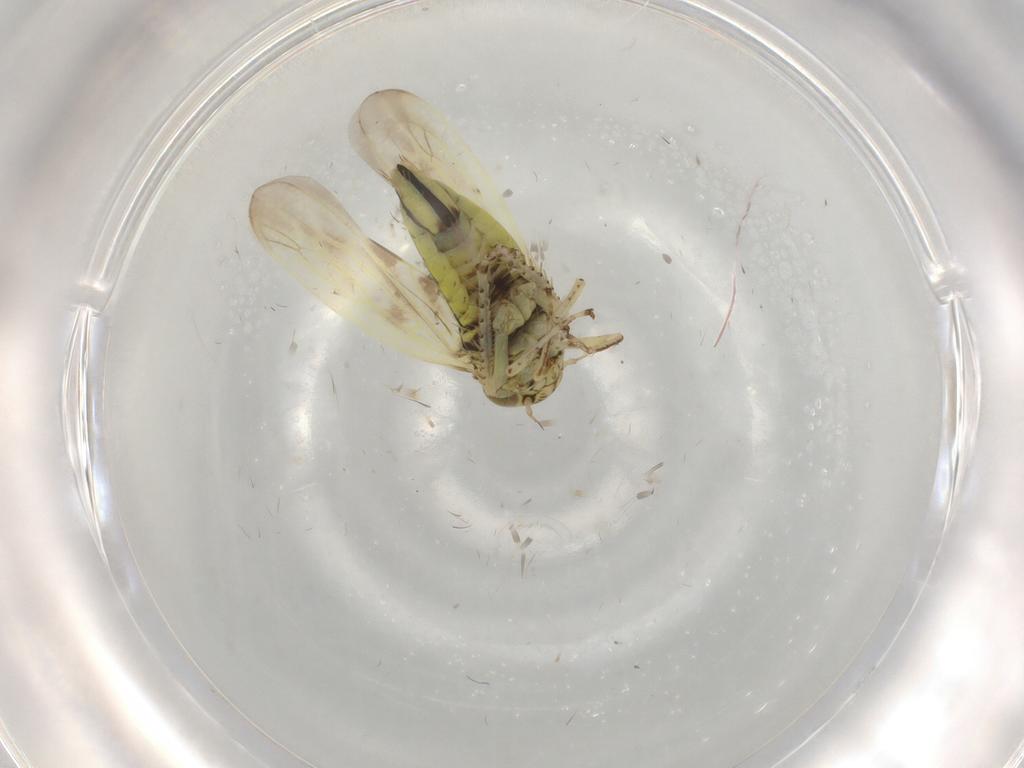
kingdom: Animalia
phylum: Arthropoda
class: Insecta
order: Hemiptera
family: Cicadellidae
